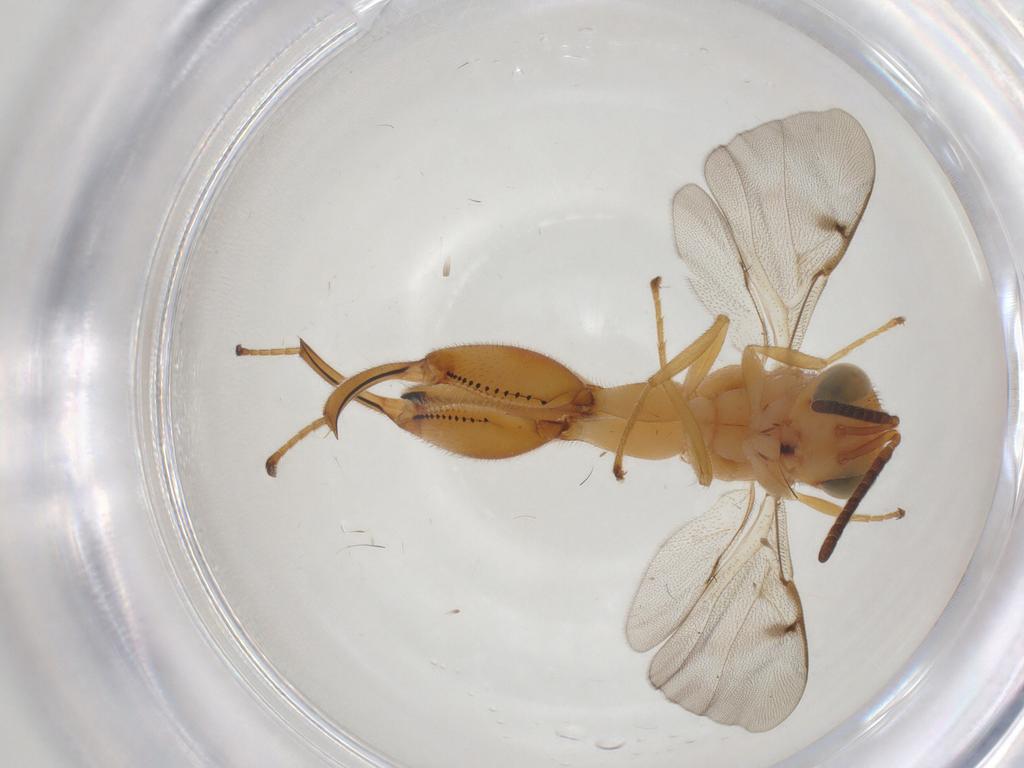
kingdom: Animalia
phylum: Arthropoda
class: Insecta
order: Hymenoptera
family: Chalcididae
